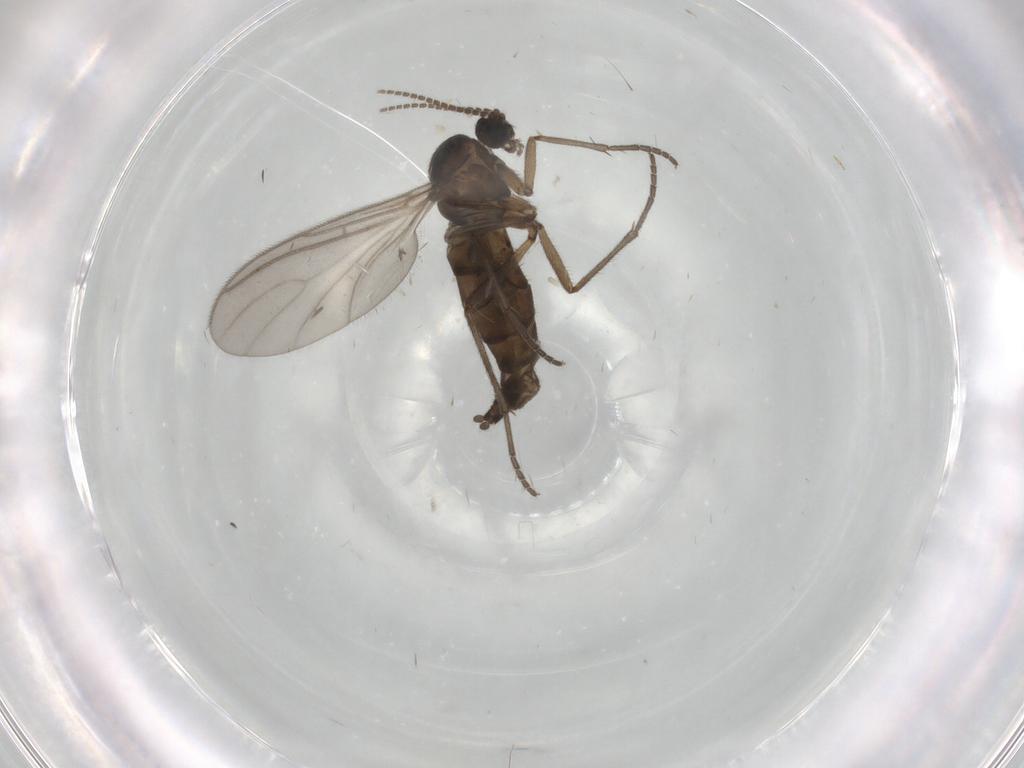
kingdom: Animalia
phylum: Arthropoda
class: Insecta
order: Diptera
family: Sciaridae
